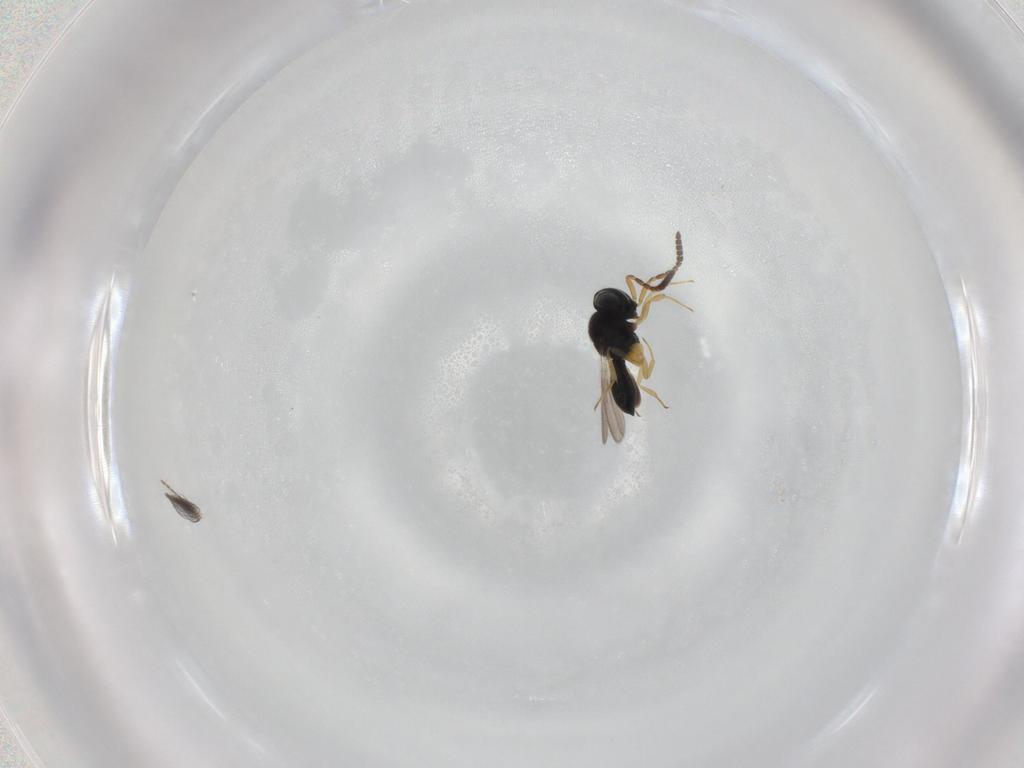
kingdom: Animalia
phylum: Arthropoda
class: Insecta
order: Hymenoptera
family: Scelionidae
